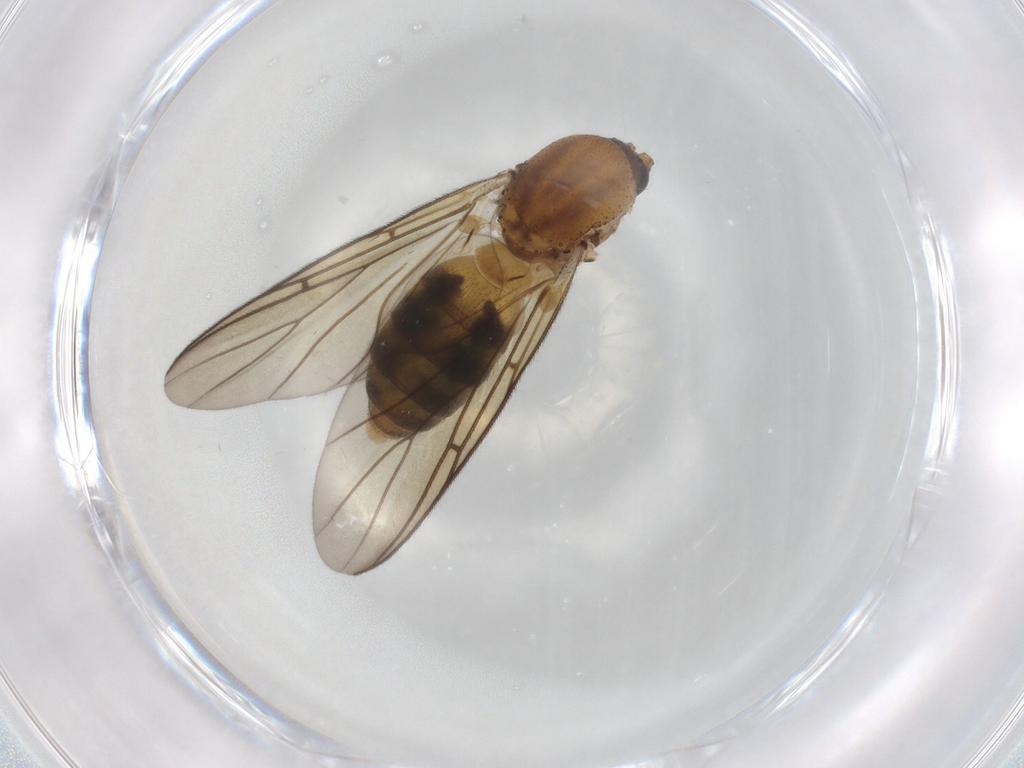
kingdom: Animalia
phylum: Arthropoda
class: Insecta
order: Diptera
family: Mycetophilidae
